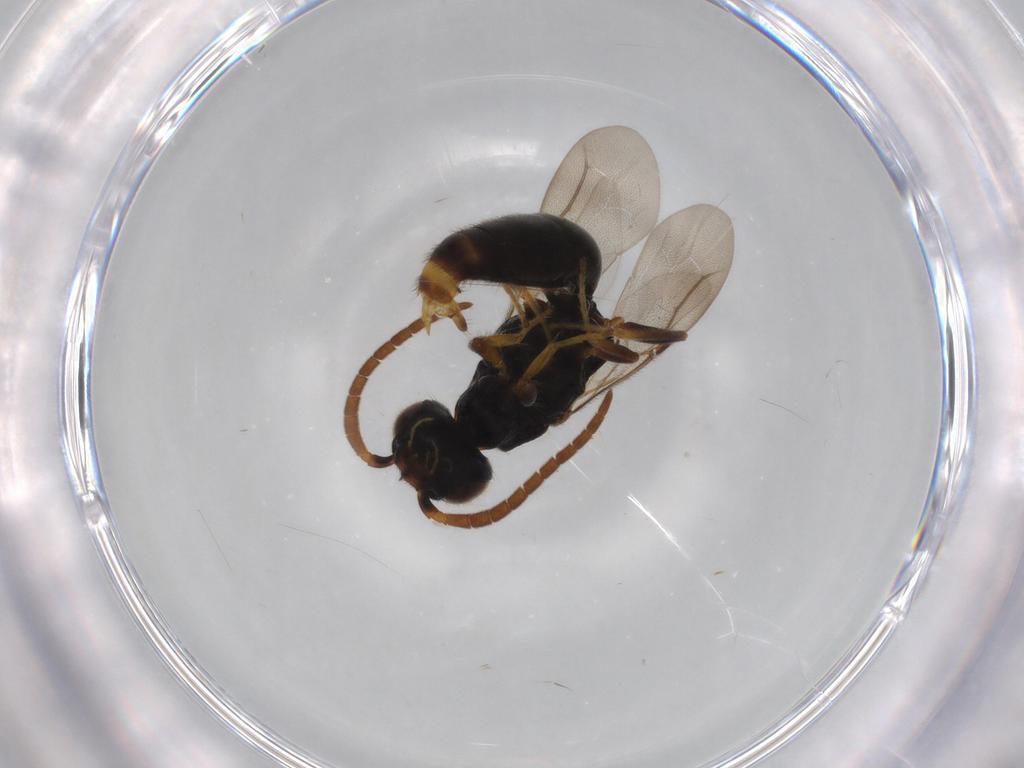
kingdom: Animalia
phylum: Arthropoda
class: Insecta
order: Hymenoptera
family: Bethylidae
